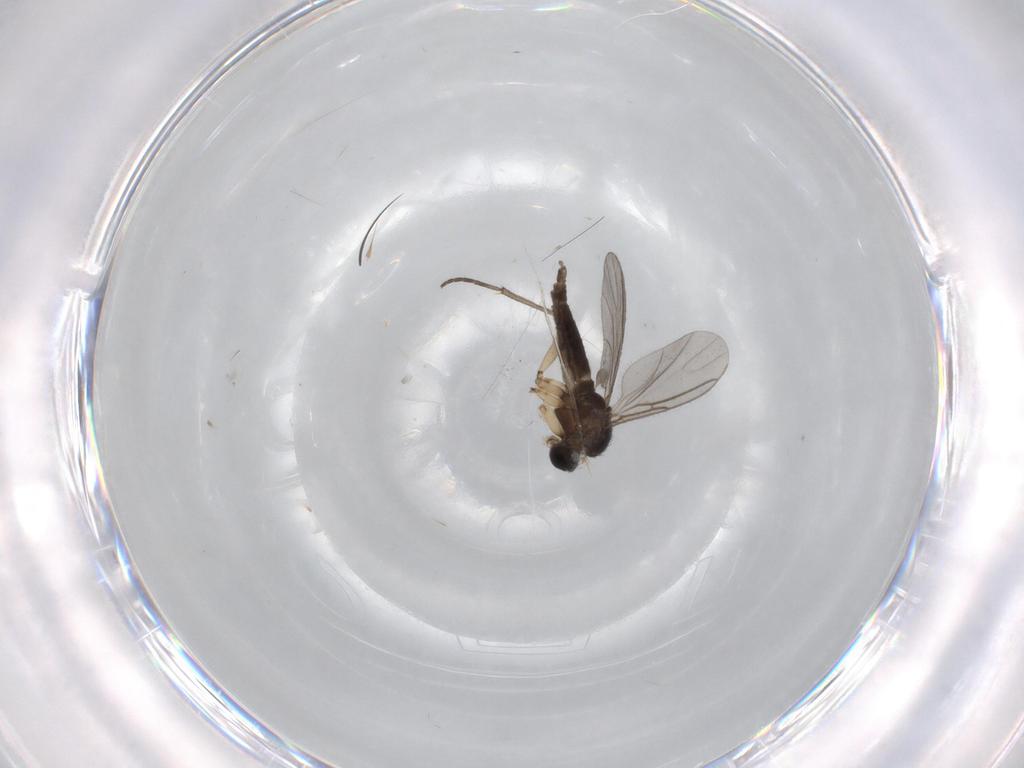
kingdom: Animalia
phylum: Arthropoda
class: Insecta
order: Diptera
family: Sciaridae
